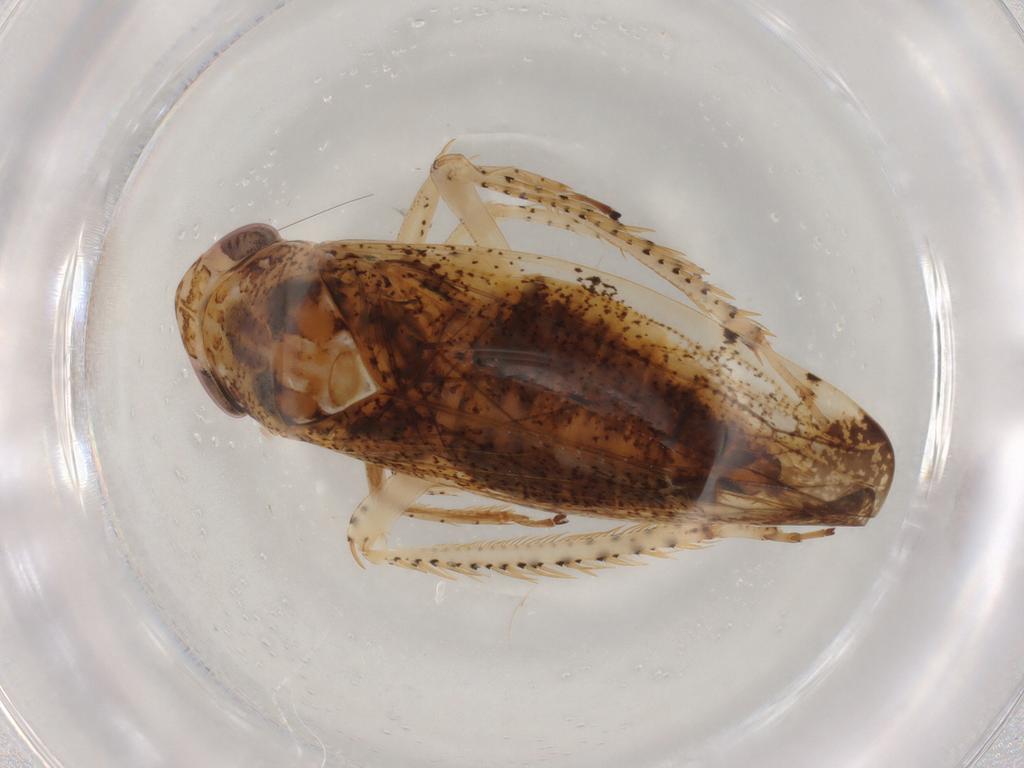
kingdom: Animalia
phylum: Arthropoda
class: Insecta
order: Hemiptera
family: Cicadellidae
